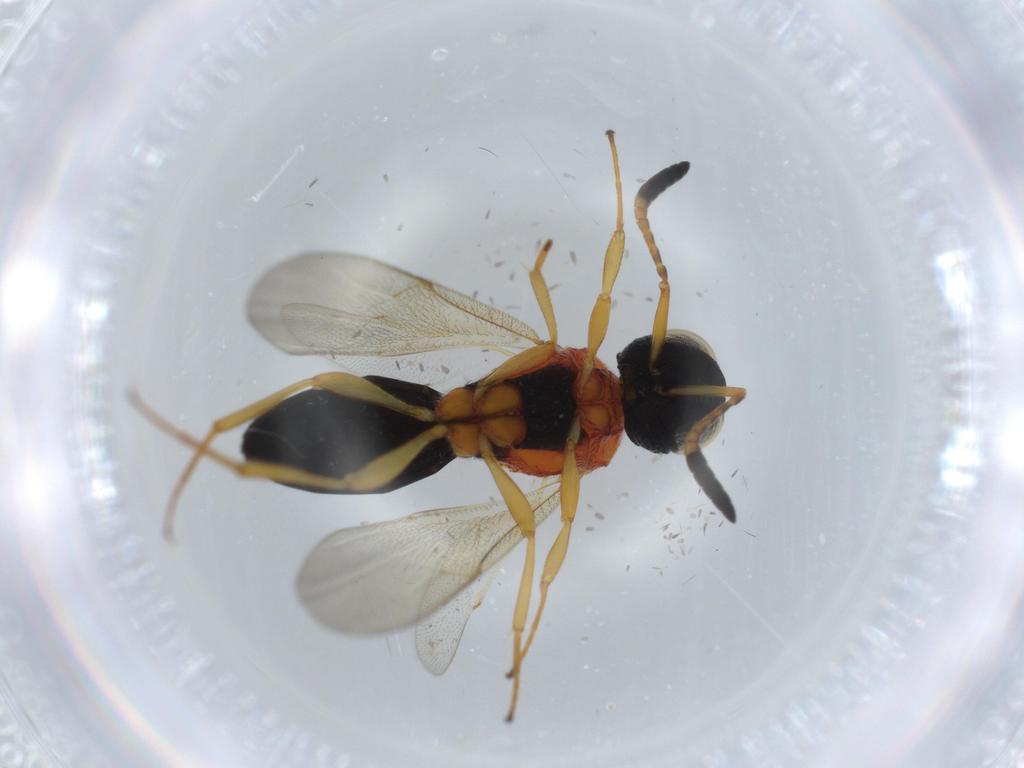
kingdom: Animalia
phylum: Arthropoda
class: Insecta
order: Hymenoptera
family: Scelionidae
